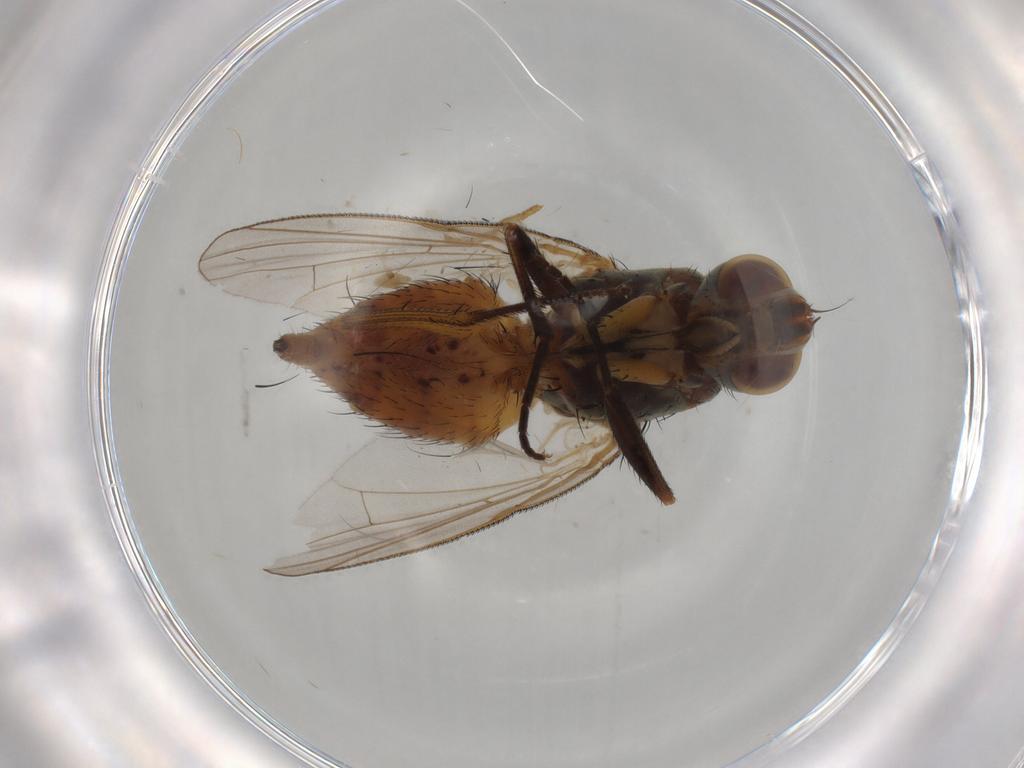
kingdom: Animalia
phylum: Arthropoda
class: Insecta
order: Diptera
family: Muscidae
